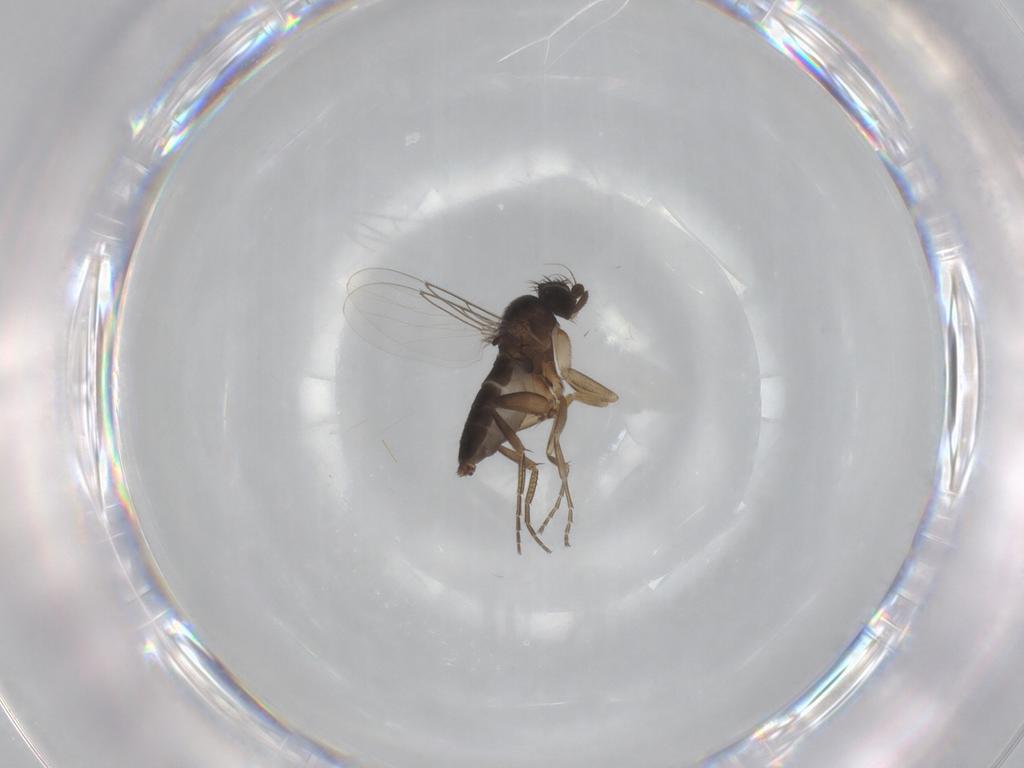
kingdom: Animalia
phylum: Arthropoda
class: Insecta
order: Diptera
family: Phoridae
